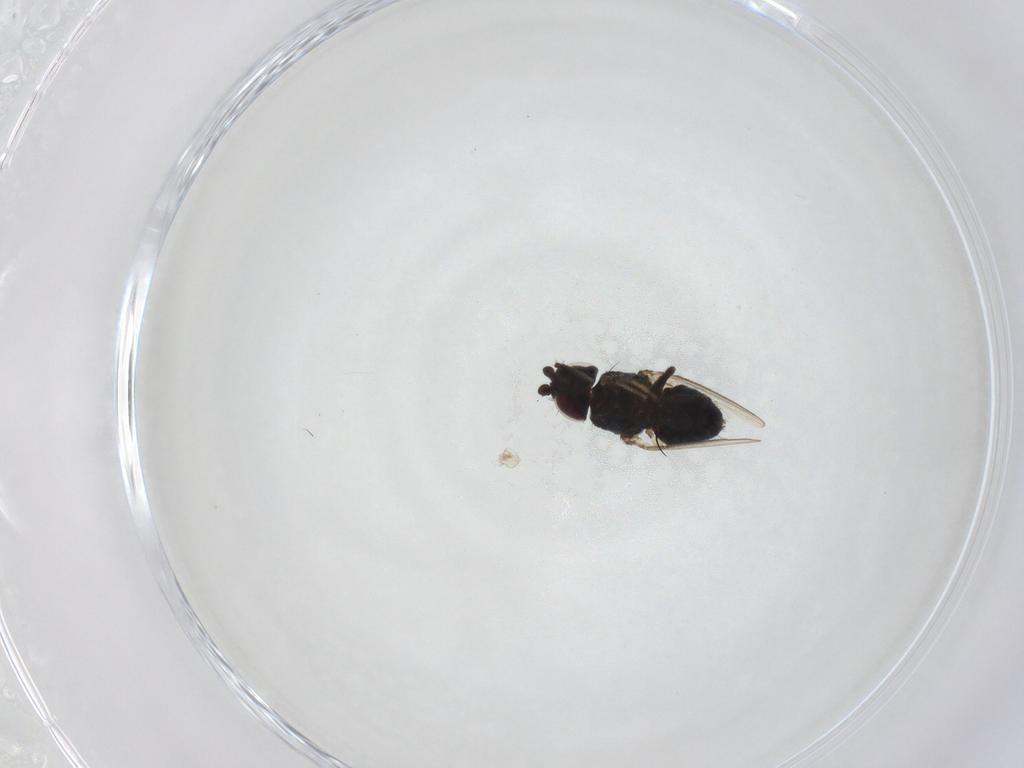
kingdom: Animalia
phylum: Arthropoda
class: Insecta
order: Diptera
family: Milichiidae
